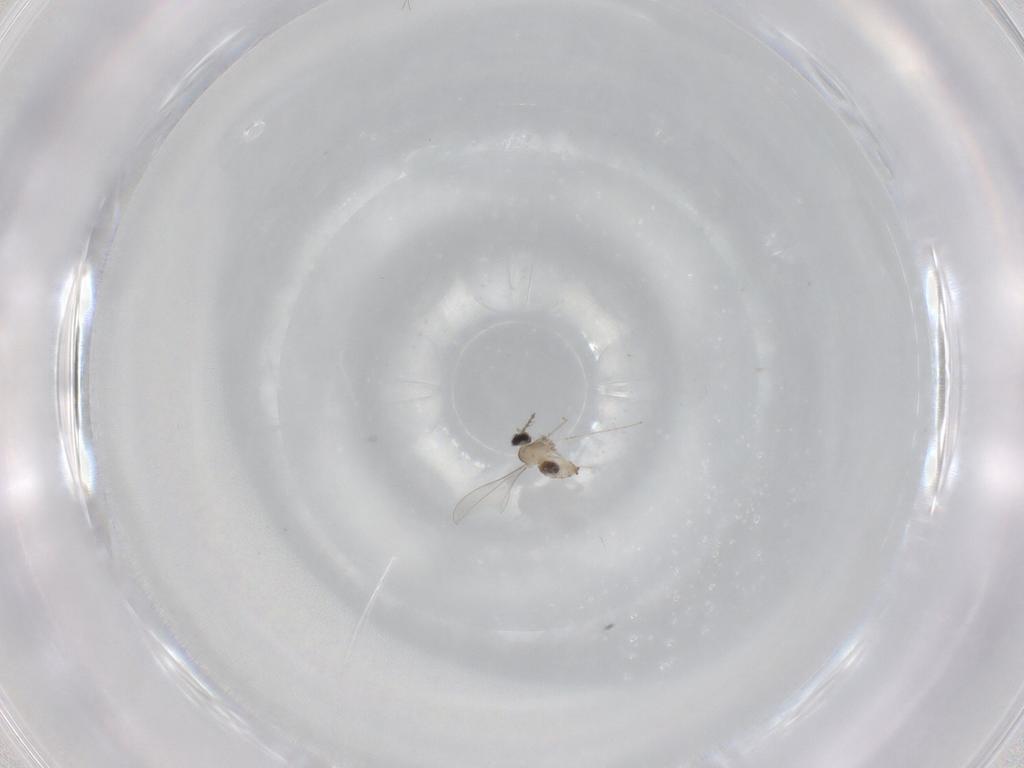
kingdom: Animalia
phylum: Arthropoda
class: Insecta
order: Diptera
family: Cecidomyiidae
